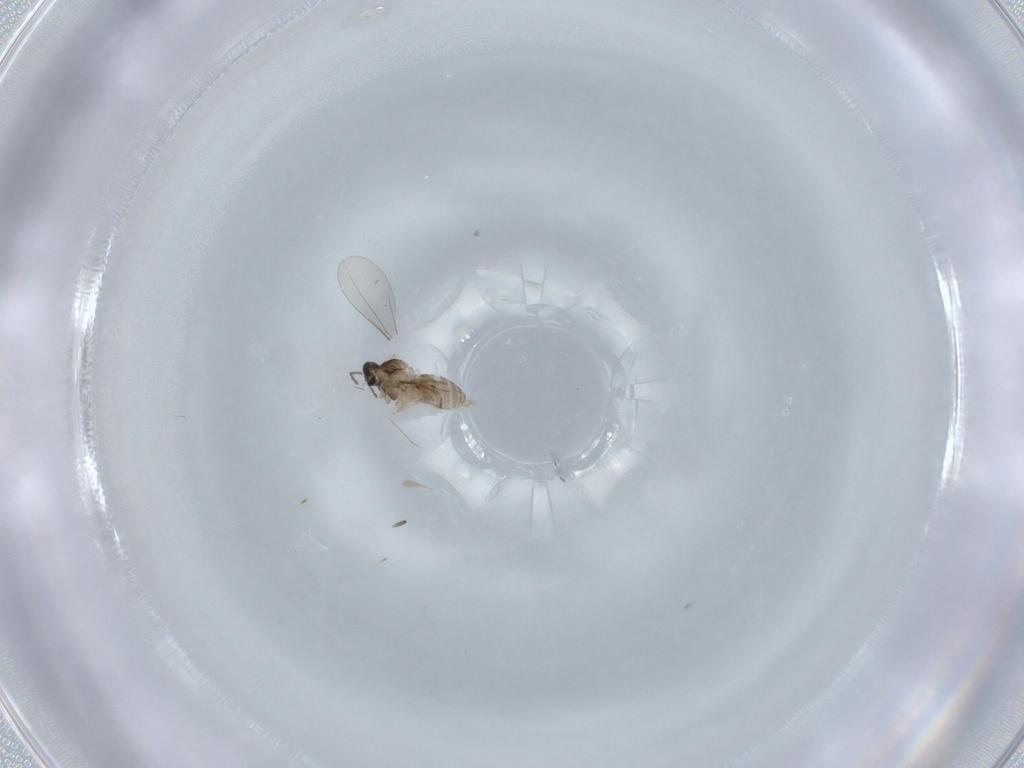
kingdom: Animalia
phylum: Arthropoda
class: Insecta
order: Diptera
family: Cecidomyiidae
